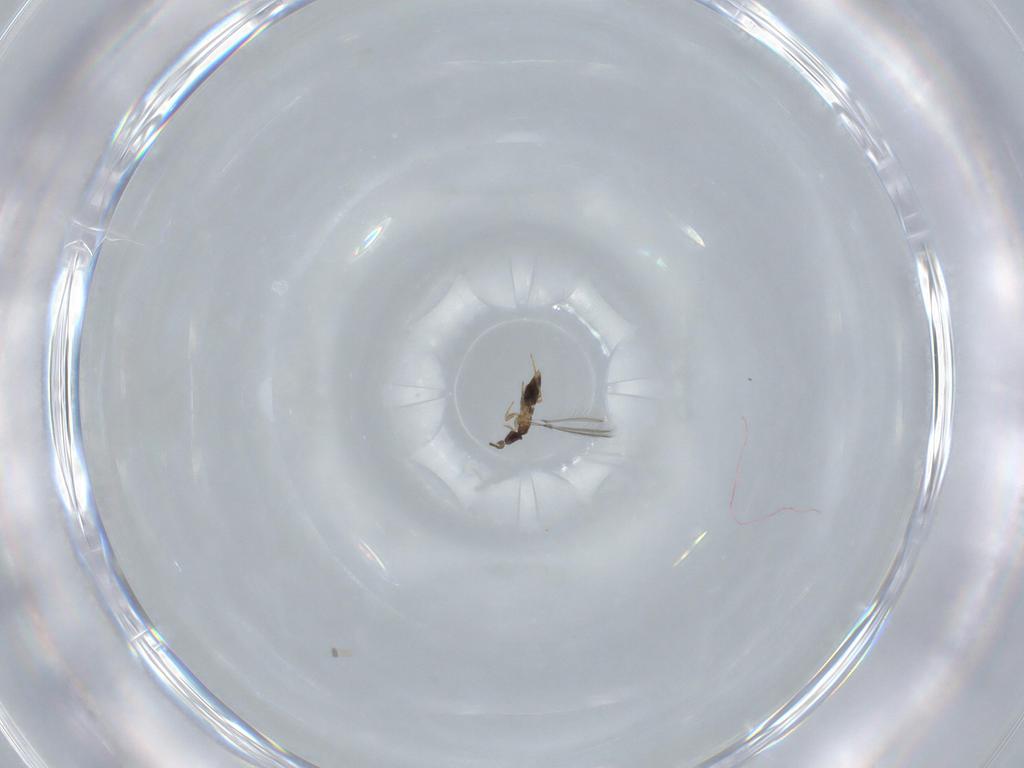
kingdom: Animalia
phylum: Arthropoda
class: Insecta
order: Hymenoptera
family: Mymaridae
